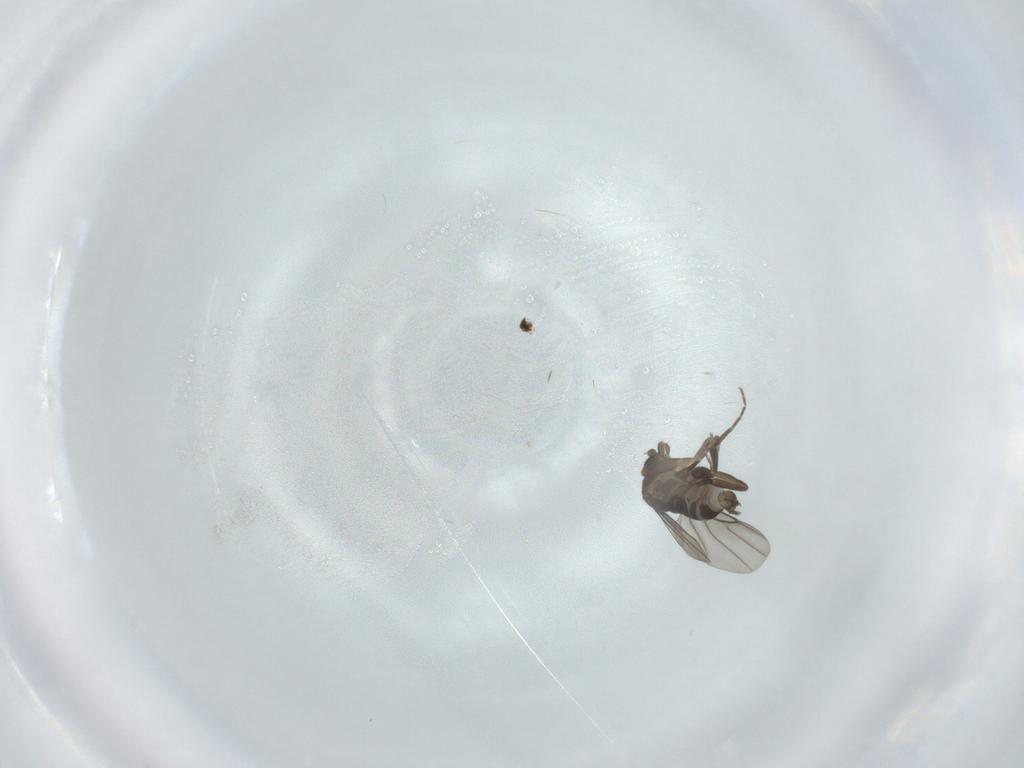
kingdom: Animalia
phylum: Arthropoda
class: Insecta
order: Diptera
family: Phoridae
